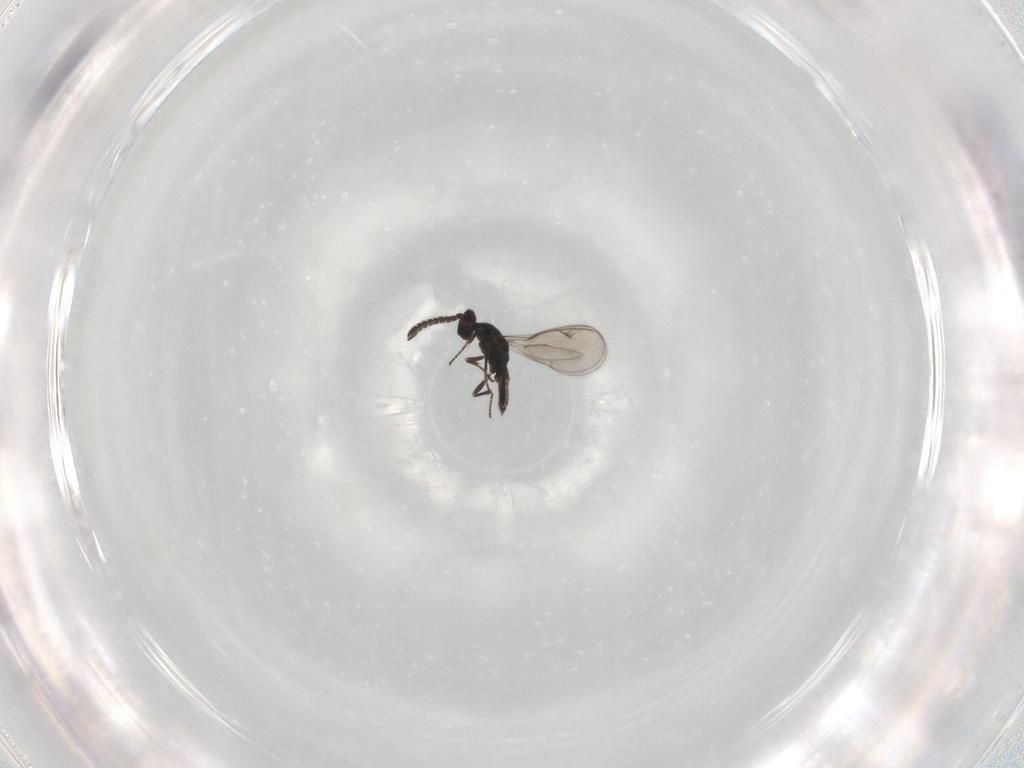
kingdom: Animalia
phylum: Arthropoda
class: Insecta
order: Hymenoptera
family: Eupelmidae
